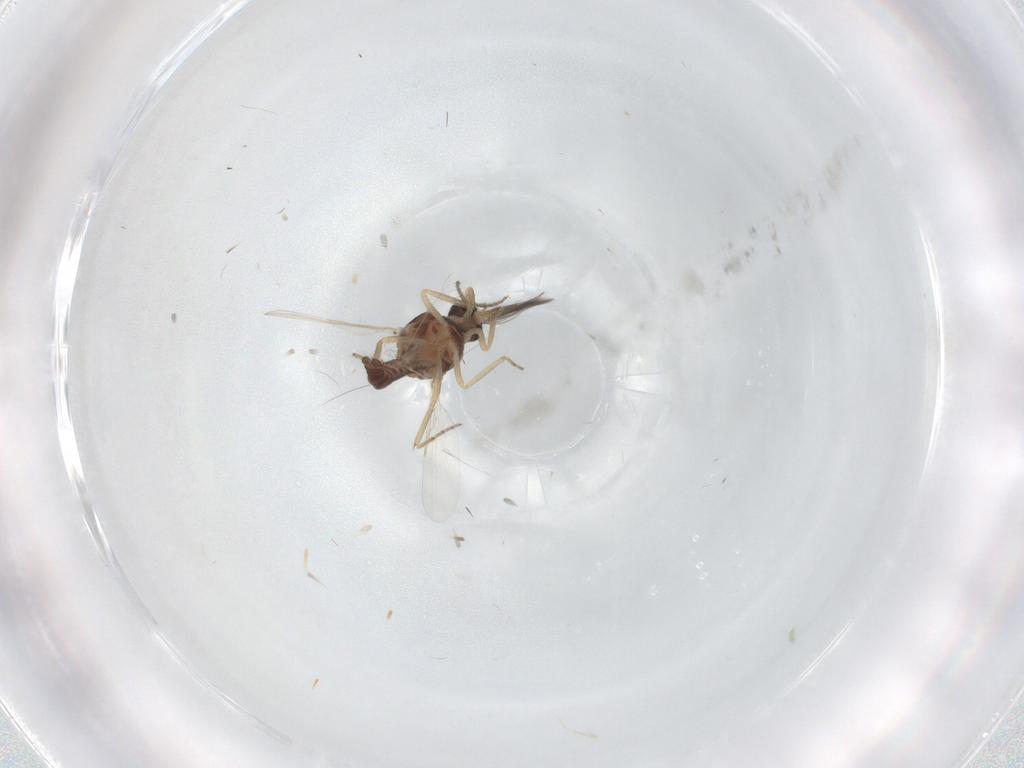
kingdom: Animalia
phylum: Arthropoda
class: Insecta
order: Diptera
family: Ceratopogonidae
